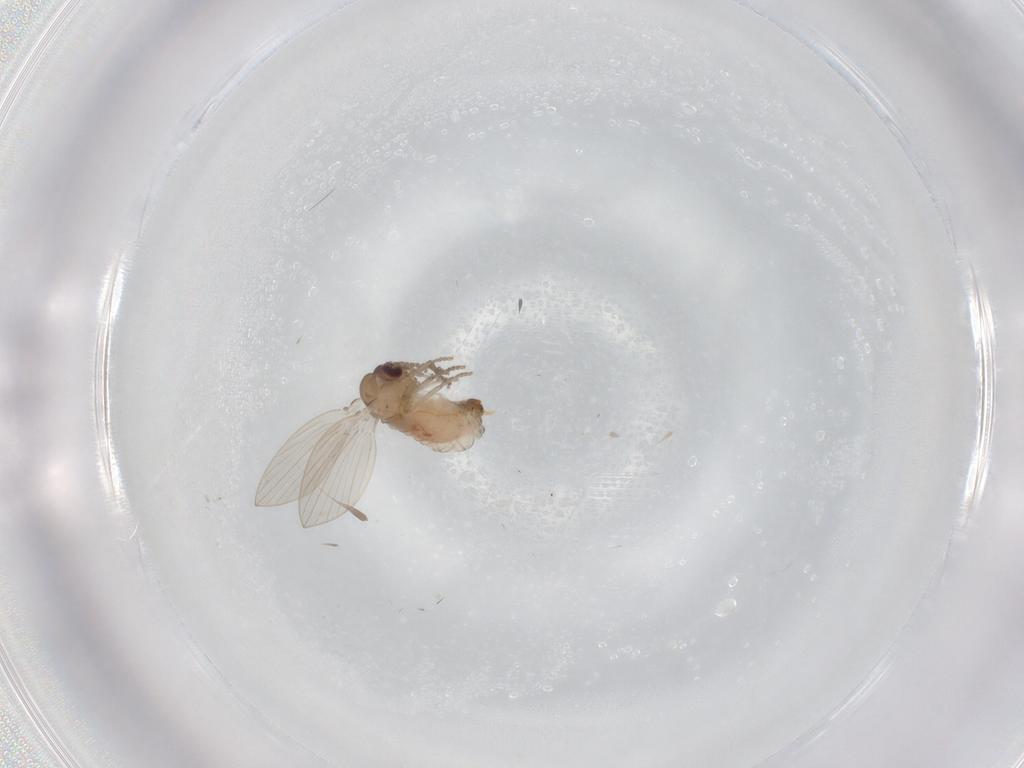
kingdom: Animalia
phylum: Arthropoda
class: Insecta
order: Diptera
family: Psychodidae
